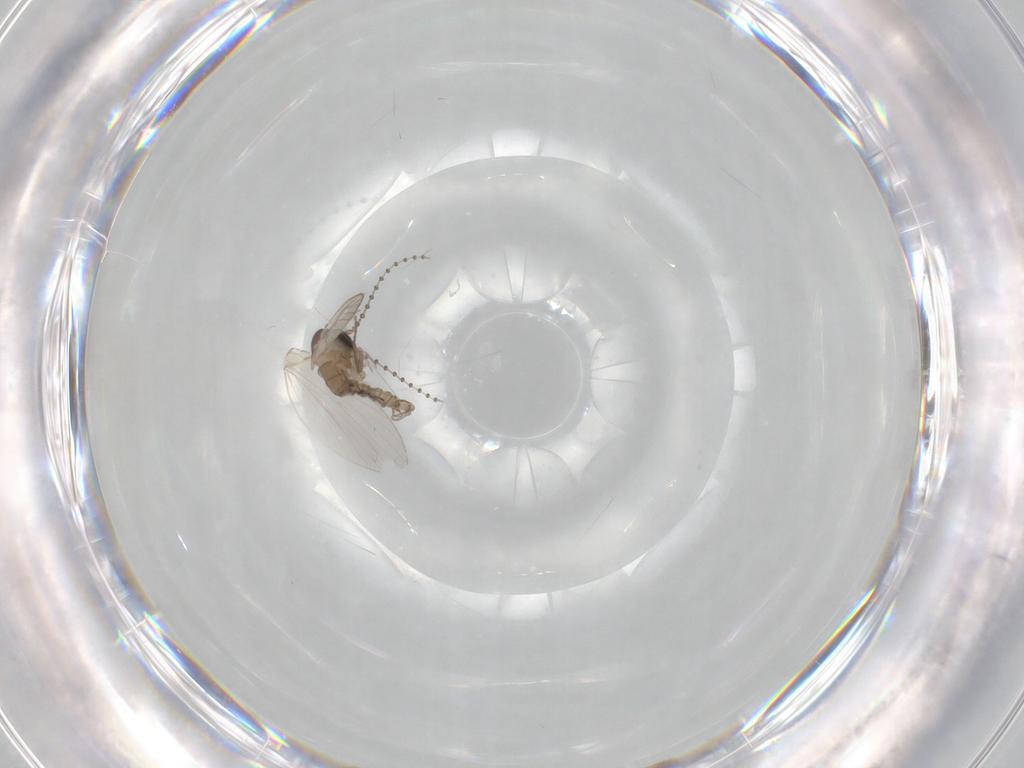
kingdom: Animalia
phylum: Arthropoda
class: Insecta
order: Diptera
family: Psychodidae
